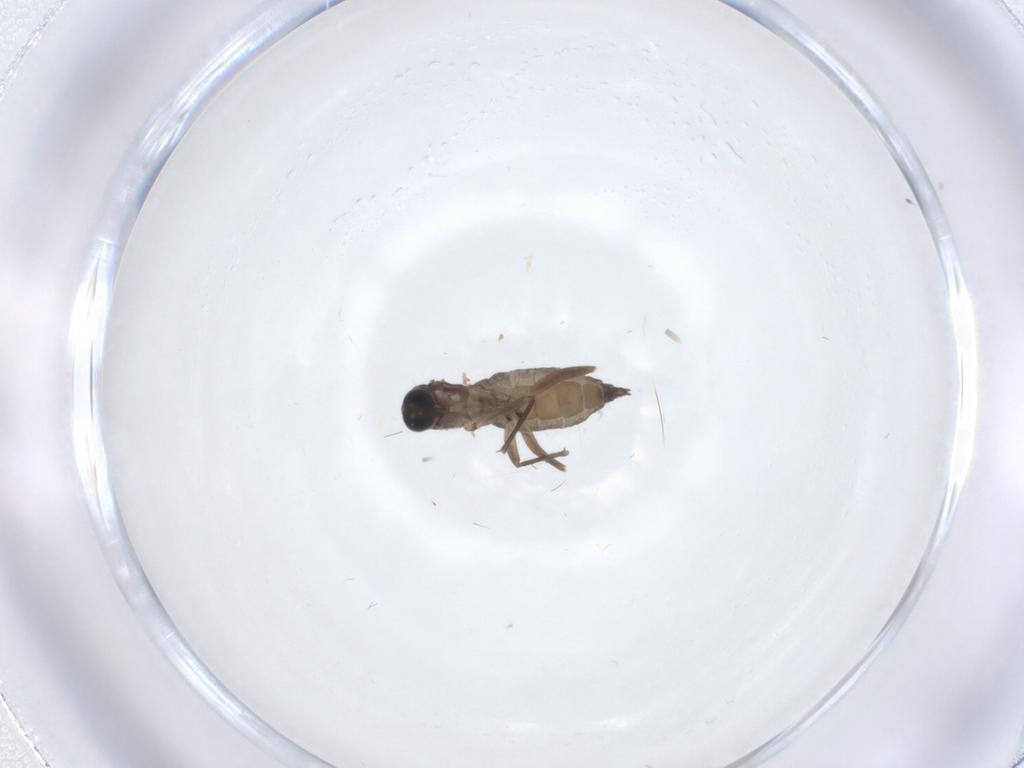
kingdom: Animalia
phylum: Arthropoda
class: Insecta
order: Diptera
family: Sciaridae
